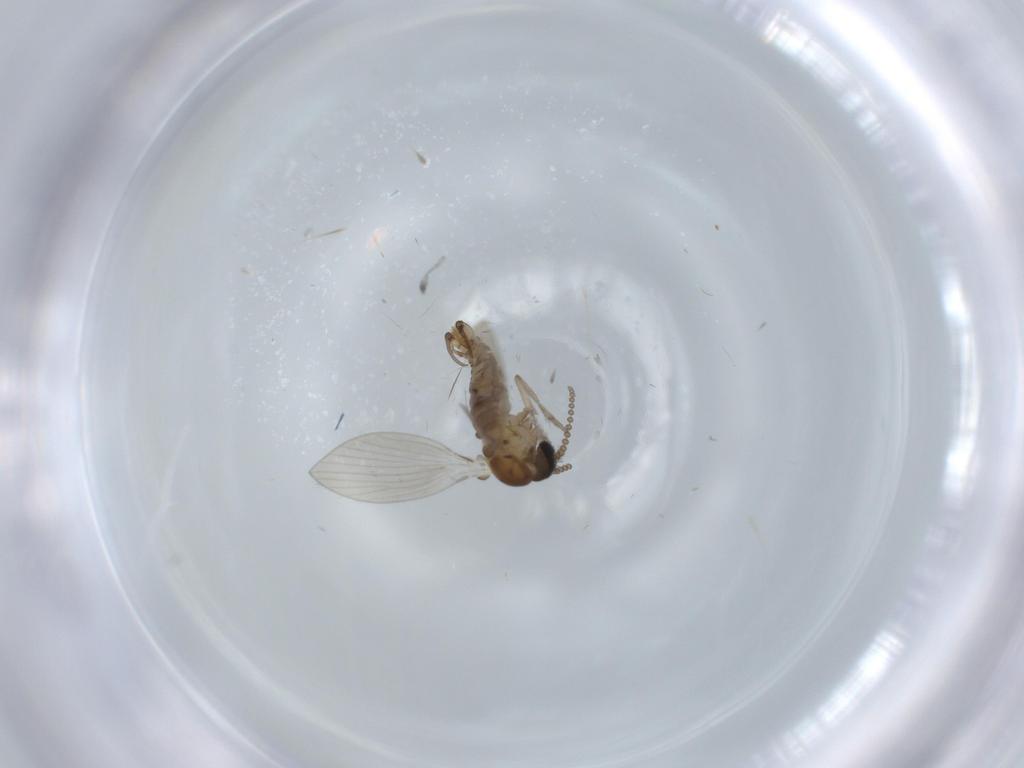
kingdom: Animalia
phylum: Arthropoda
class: Insecta
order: Diptera
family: Psychodidae
